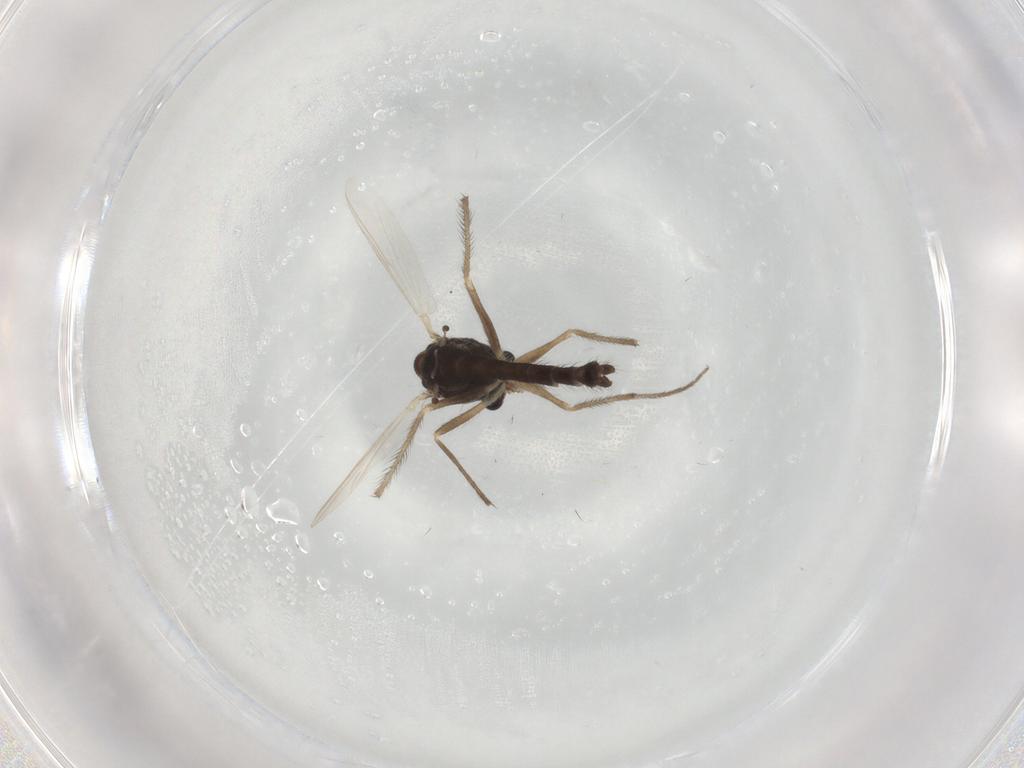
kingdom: Animalia
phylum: Arthropoda
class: Insecta
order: Diptera
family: Chironomidae
